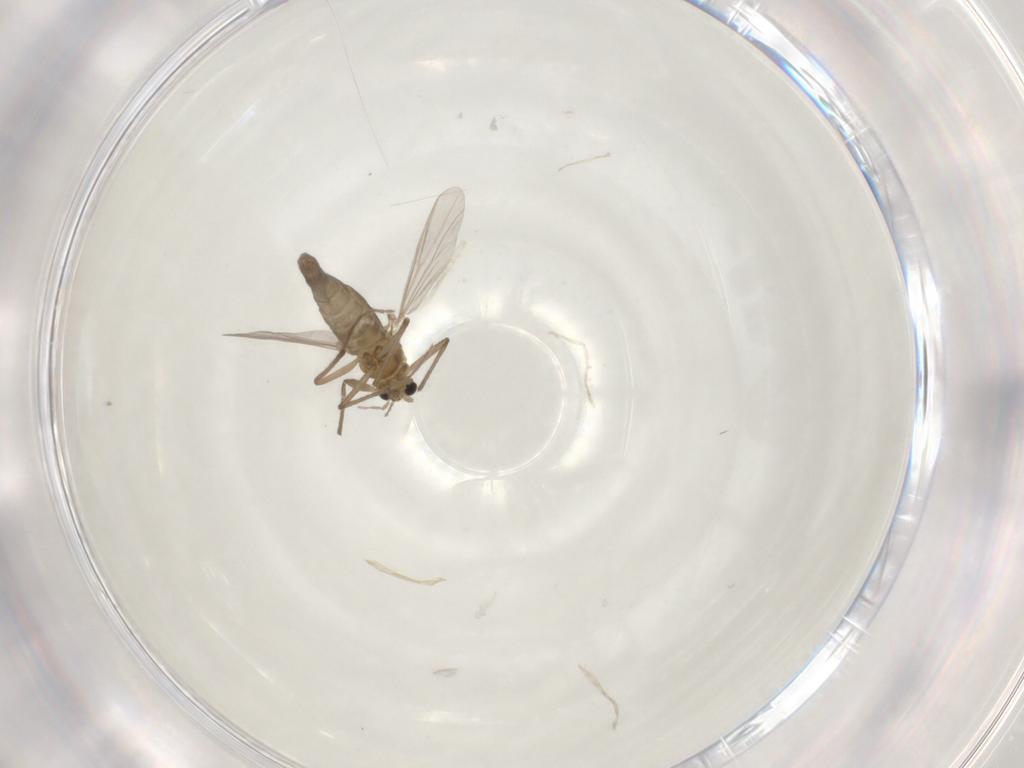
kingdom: Animalia
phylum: Arthropoda
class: Insecta
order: Diptera
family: Chironomidae
